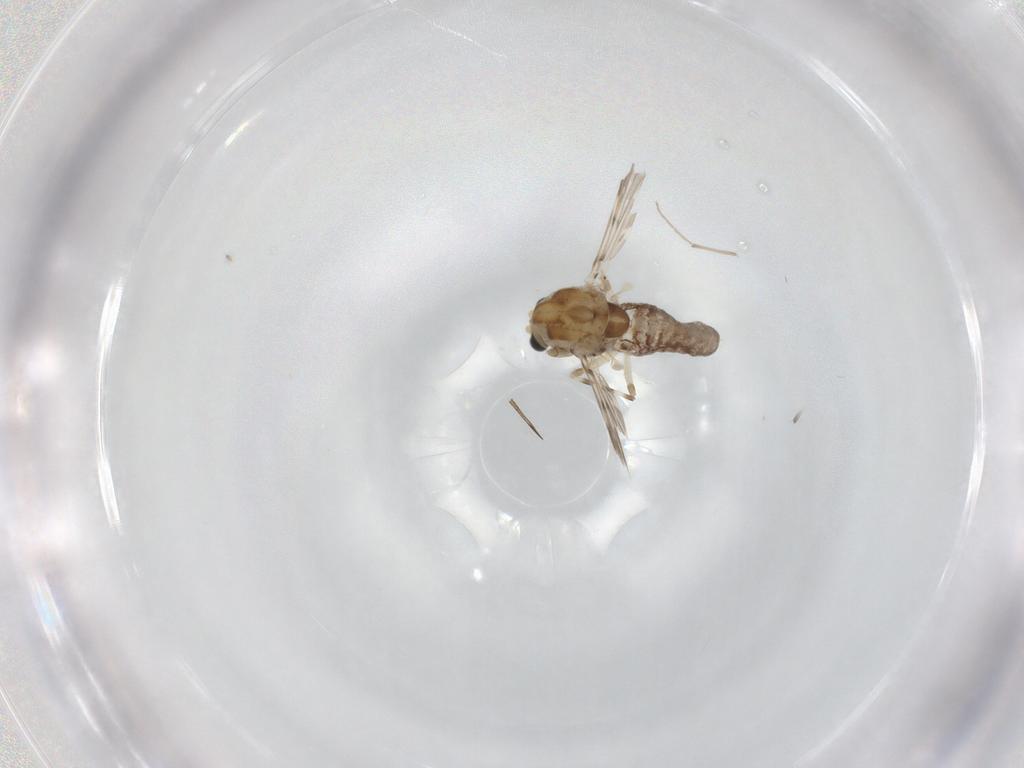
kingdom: Animalia
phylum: Arthropoda
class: Insecta
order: Diptera
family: Chironomidae
